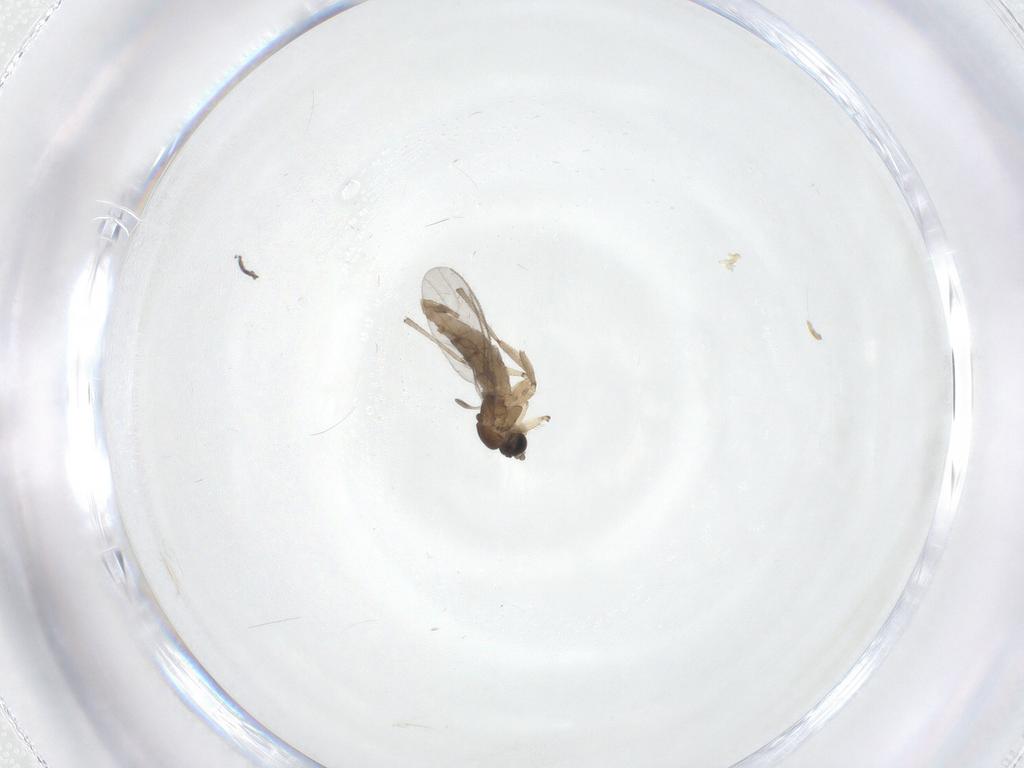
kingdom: Animalia
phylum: Arthropoda
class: Insecta
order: Diptera
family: Sciaridae
